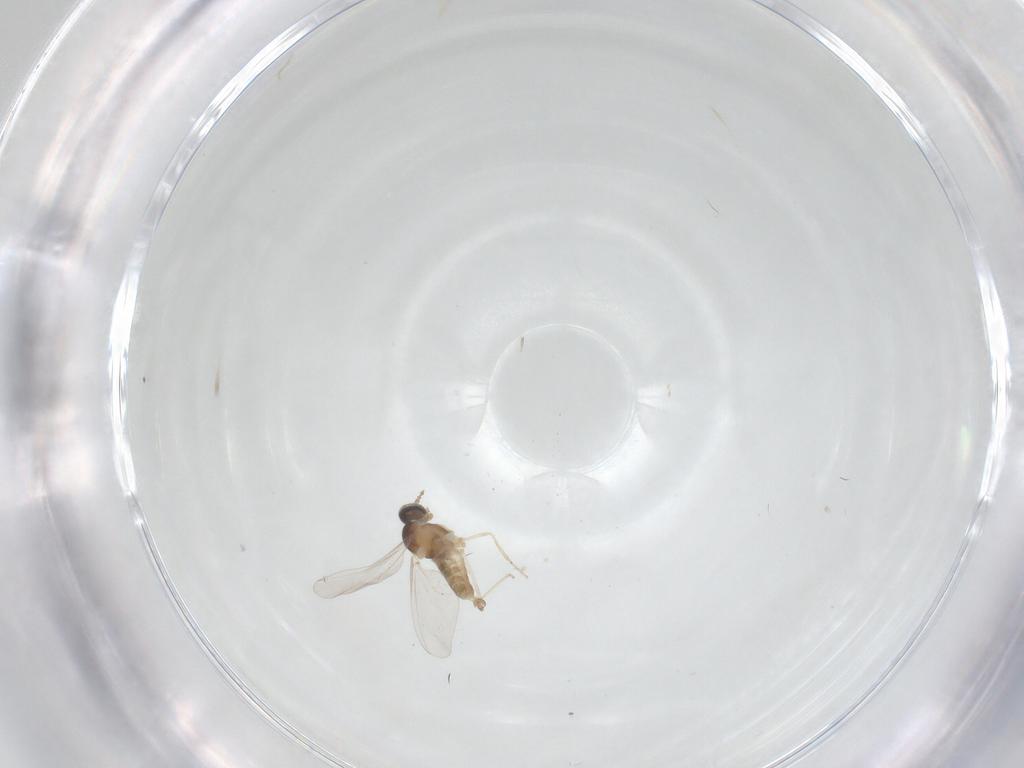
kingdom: Animalia
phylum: Arthropoda
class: Insecta
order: Diptera
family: Cecidomyiidae
